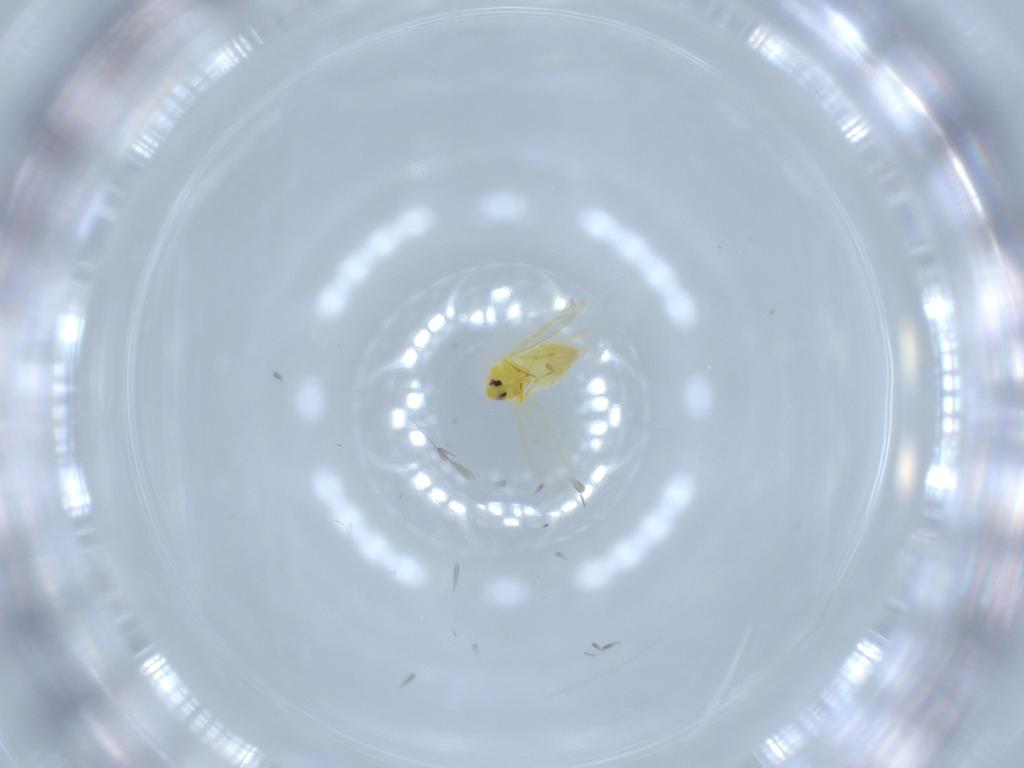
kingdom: Animalia
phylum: Arthropoda
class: Insecta
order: Hemiptera
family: Aleyrodidae
